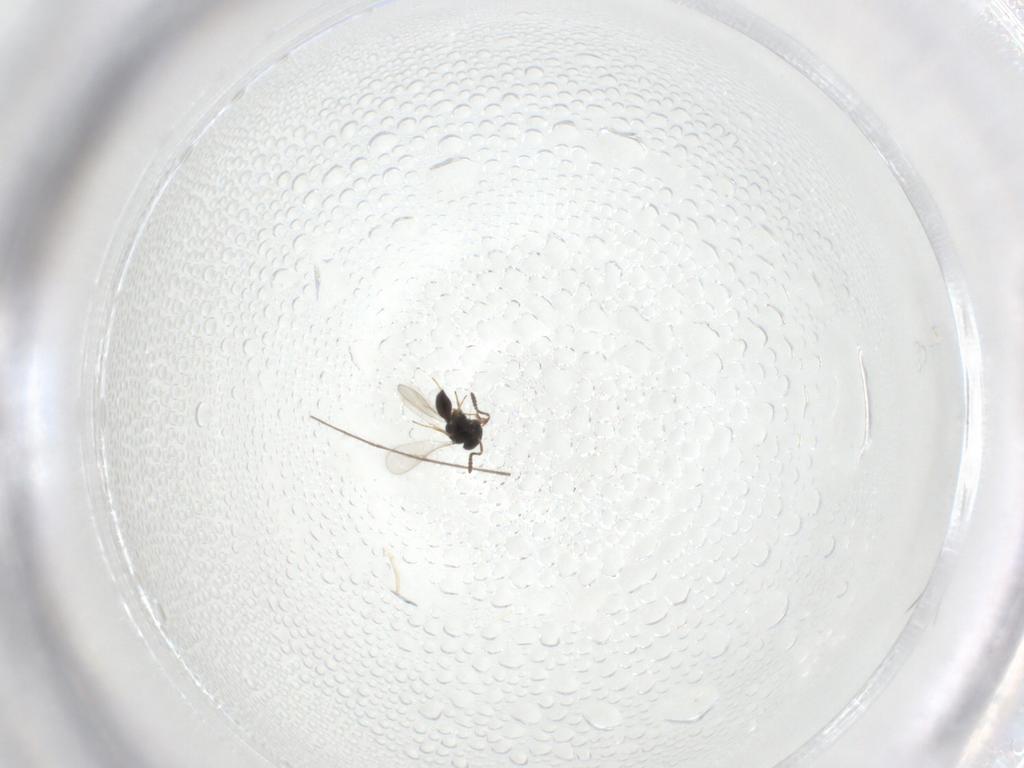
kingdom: Animalia
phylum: Arthropoda
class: Insecta
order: Hymenoptera
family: Scelionidae
